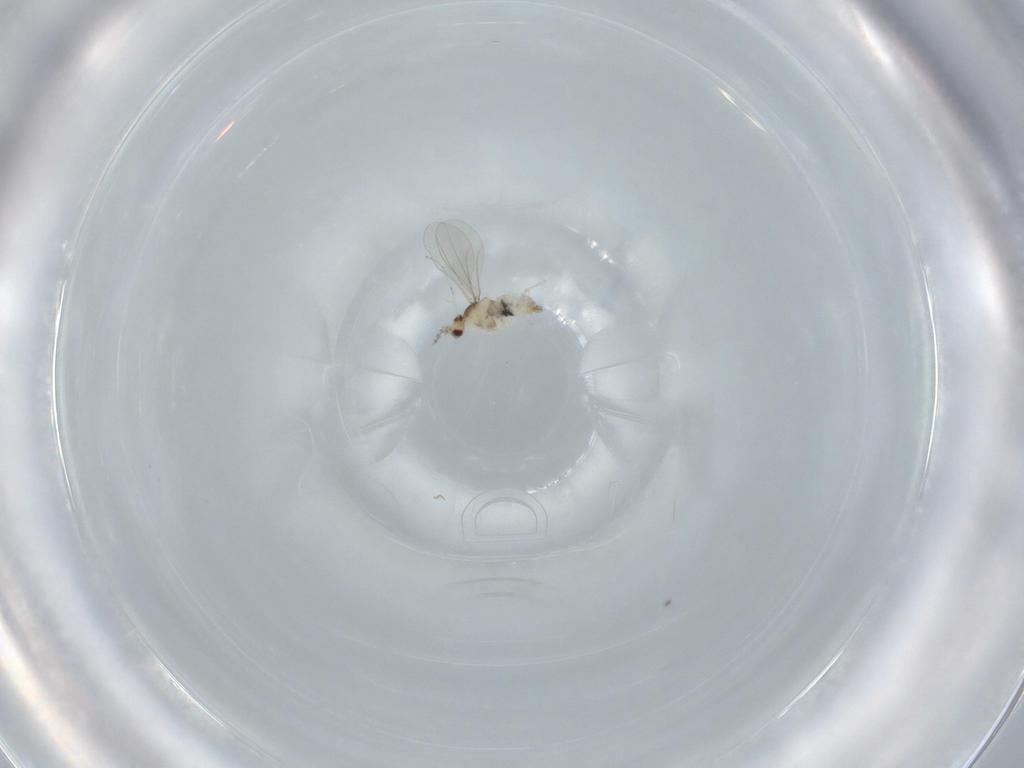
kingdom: Animalia
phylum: Arthropoda
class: Insecta
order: Diptera
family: Cecidomyiidae
